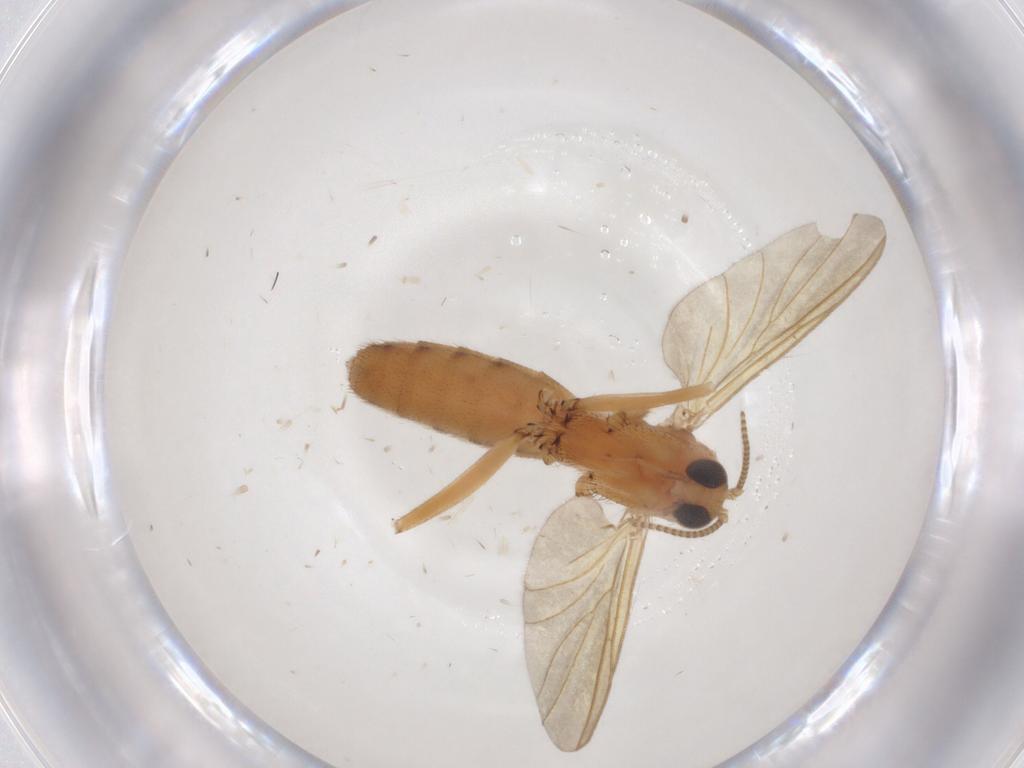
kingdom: Animalia
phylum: Arthropoda
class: Insecta
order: Diptera
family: Mycetophilidae
